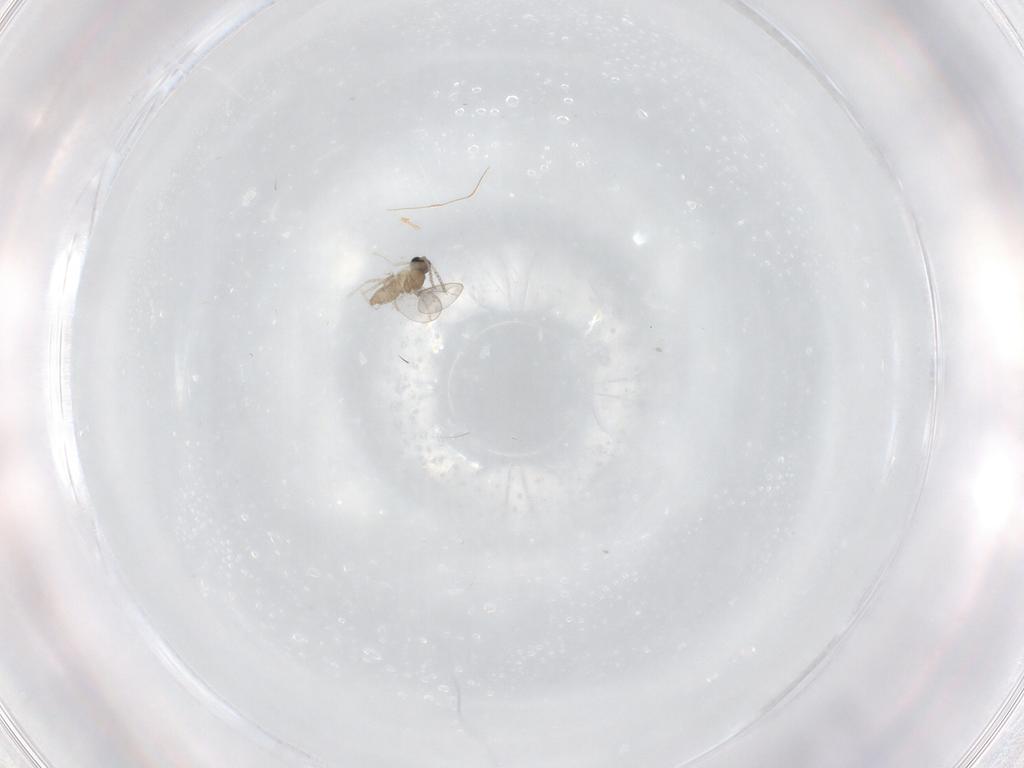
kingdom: Animalia
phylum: Arthropoda
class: Insecta
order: Diptera
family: Cecidomyiidae
